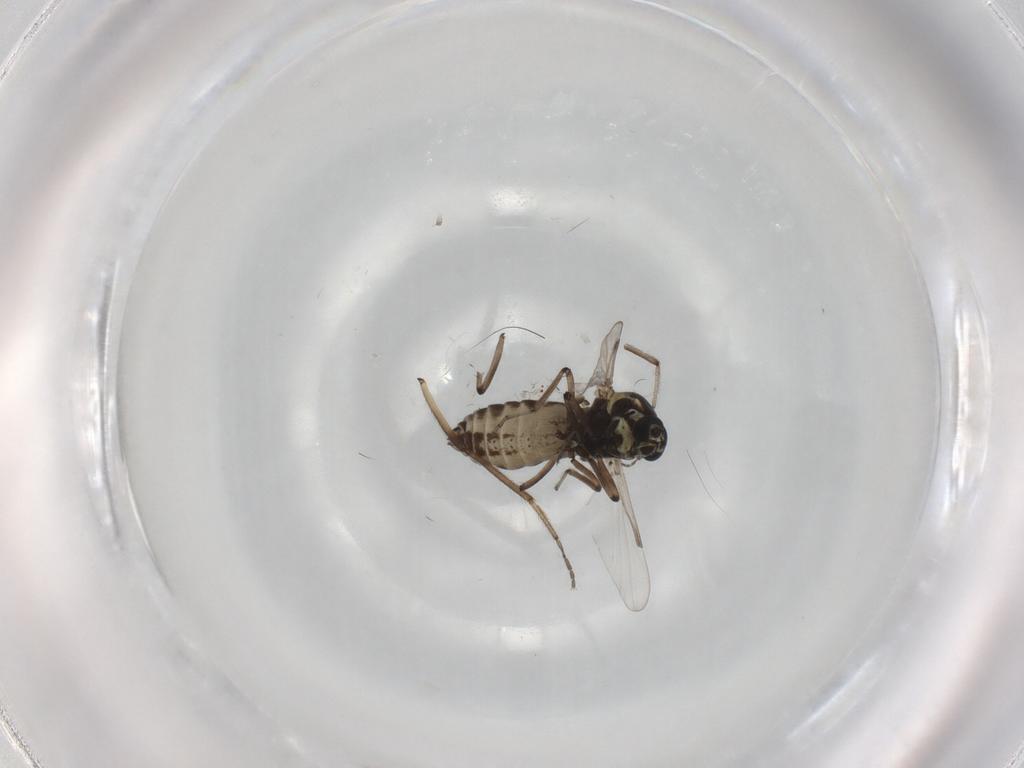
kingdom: Animalia
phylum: Arthropoda
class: Insecta
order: Diptera
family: Ceratopogonidae
